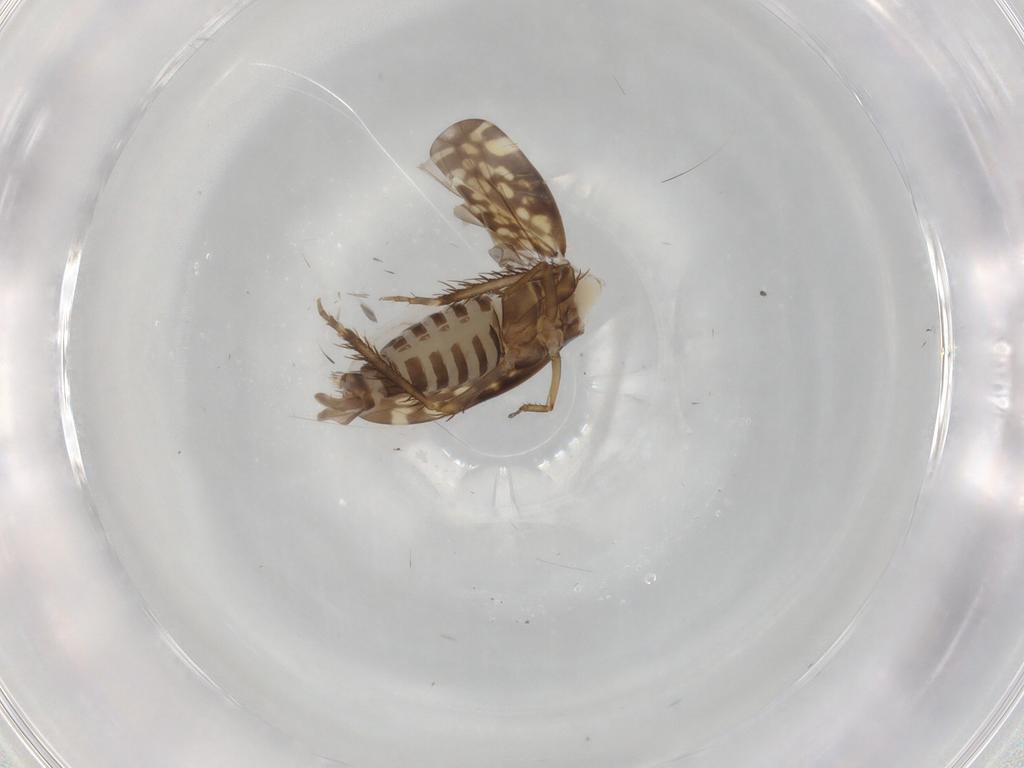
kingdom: Animalia
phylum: Arthropoda
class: Insecta
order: Hemiptera
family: Cicadellidae
